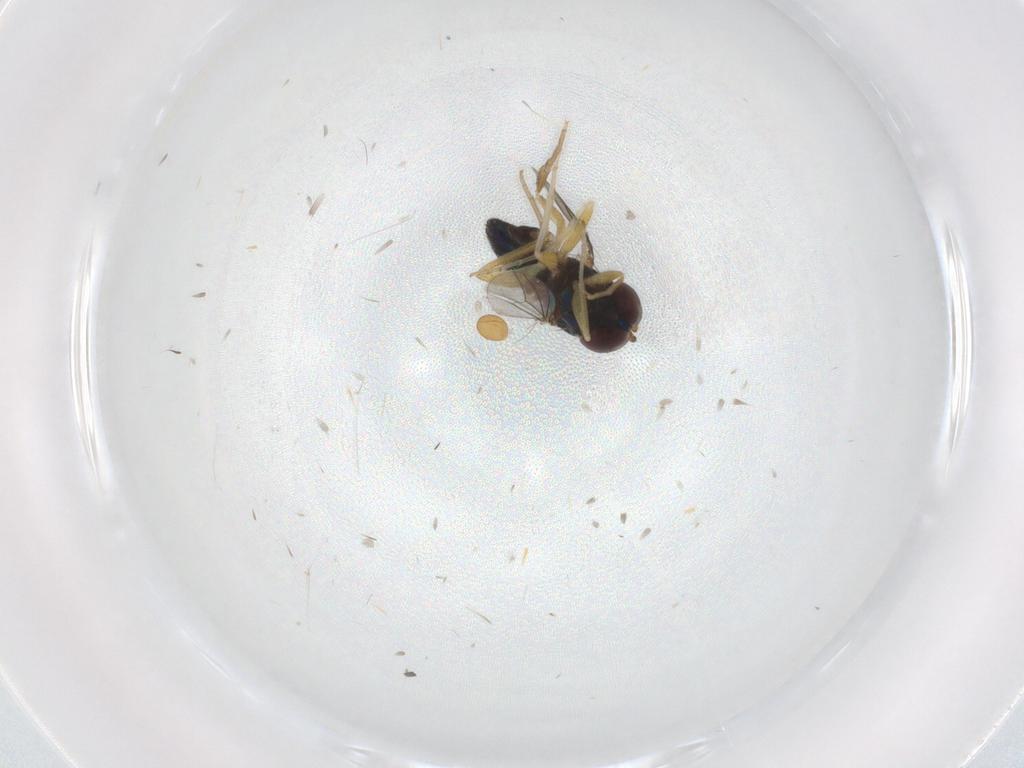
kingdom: Animalia
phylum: Arthropoda
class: Insecta
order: Diptera
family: Dolichopodidae
